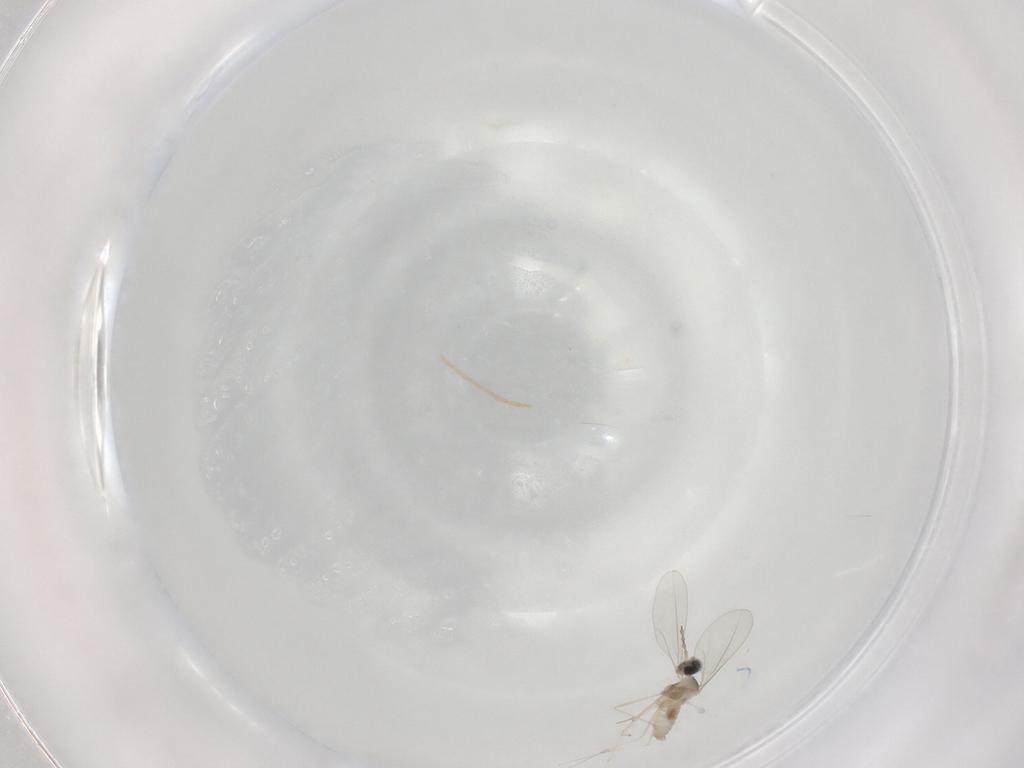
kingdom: Animalia
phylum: Arthropoda
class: Insecta
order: Diptera
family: Cecidomyiidae
